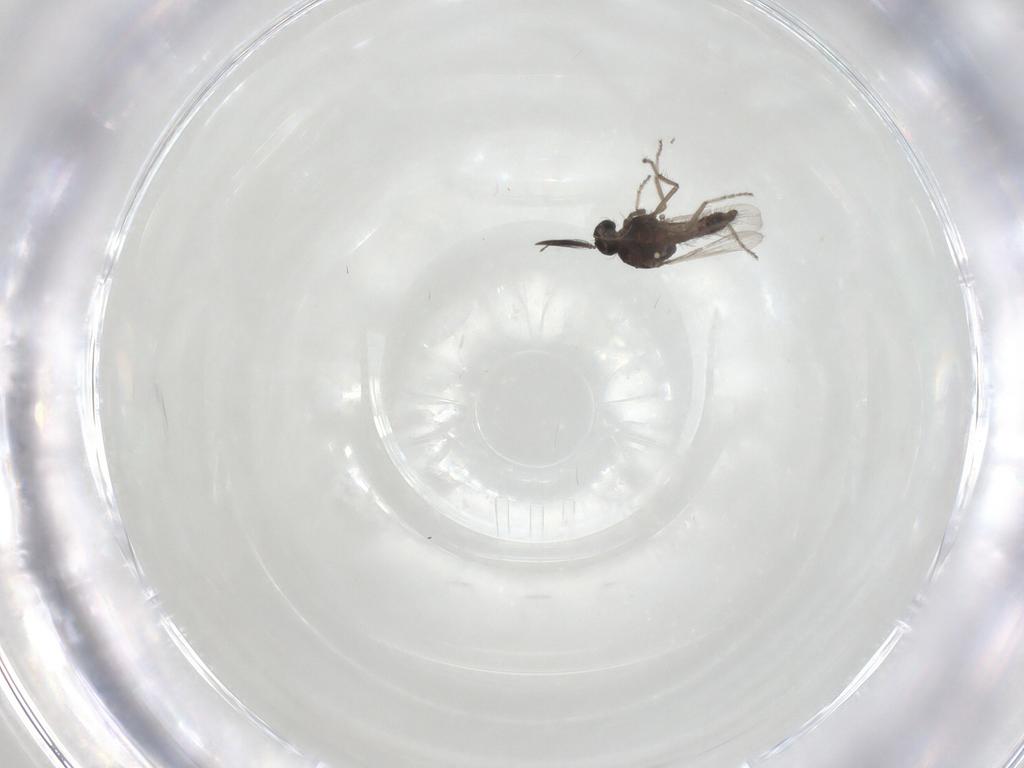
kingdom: Animalia
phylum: Arthropoda
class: Insecta
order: Diptera
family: Ceratopogonidae
